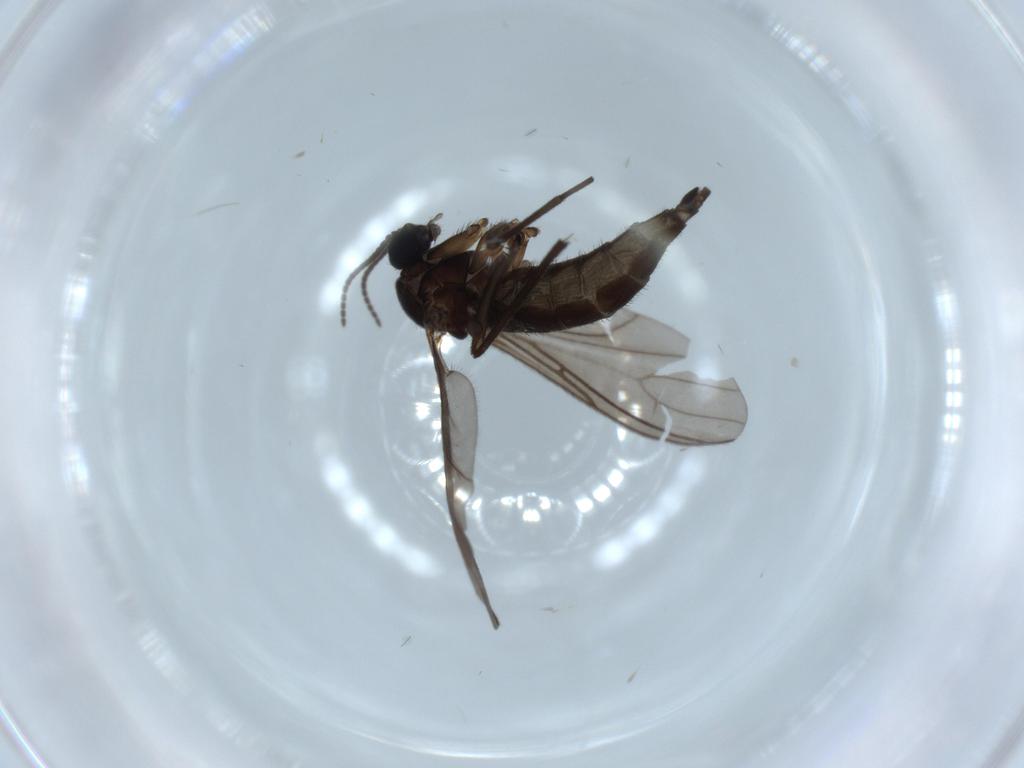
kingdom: Animalia
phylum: Arthropoda
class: Insecta
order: Diptera
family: Sciaridae
